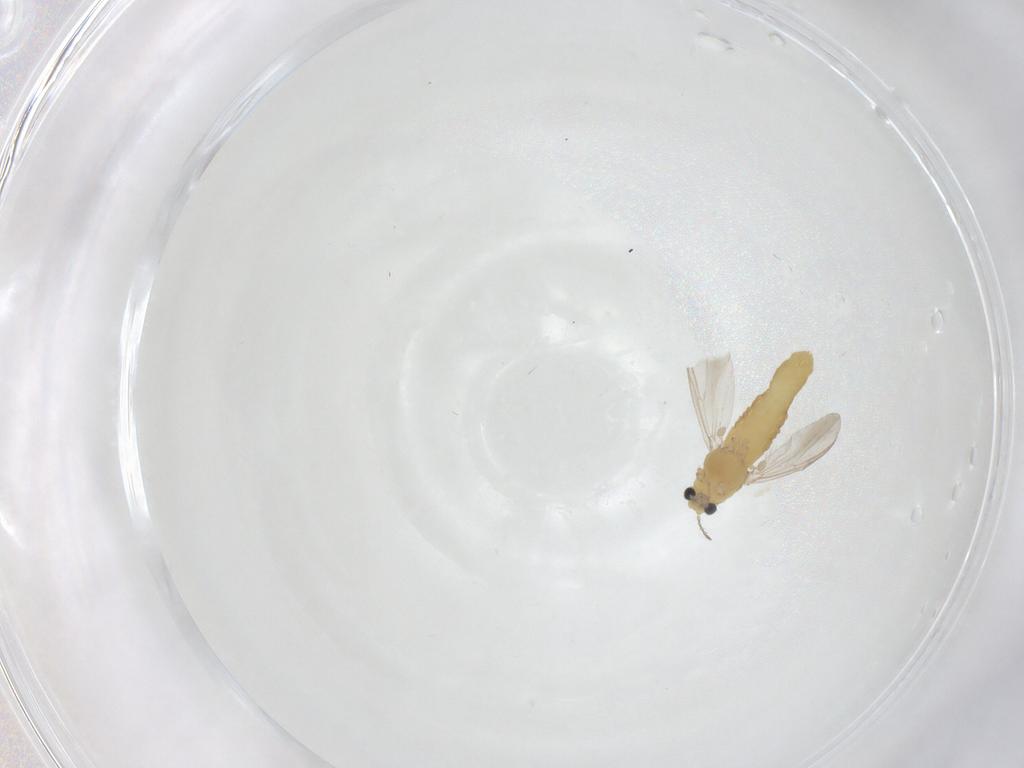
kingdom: Animalia
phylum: Arthropoda
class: Insecta
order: Diptera
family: Chironomidae
